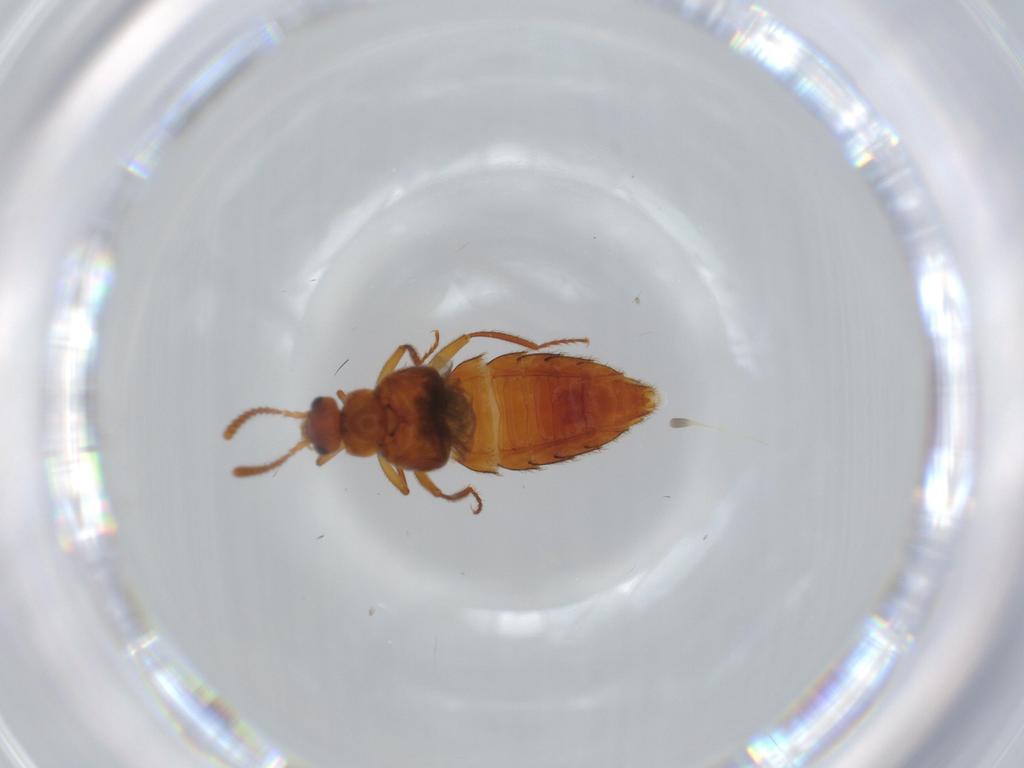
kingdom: Animalia
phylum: Arthropoda
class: Insecta
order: Coleoptera
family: Staphylinidae
